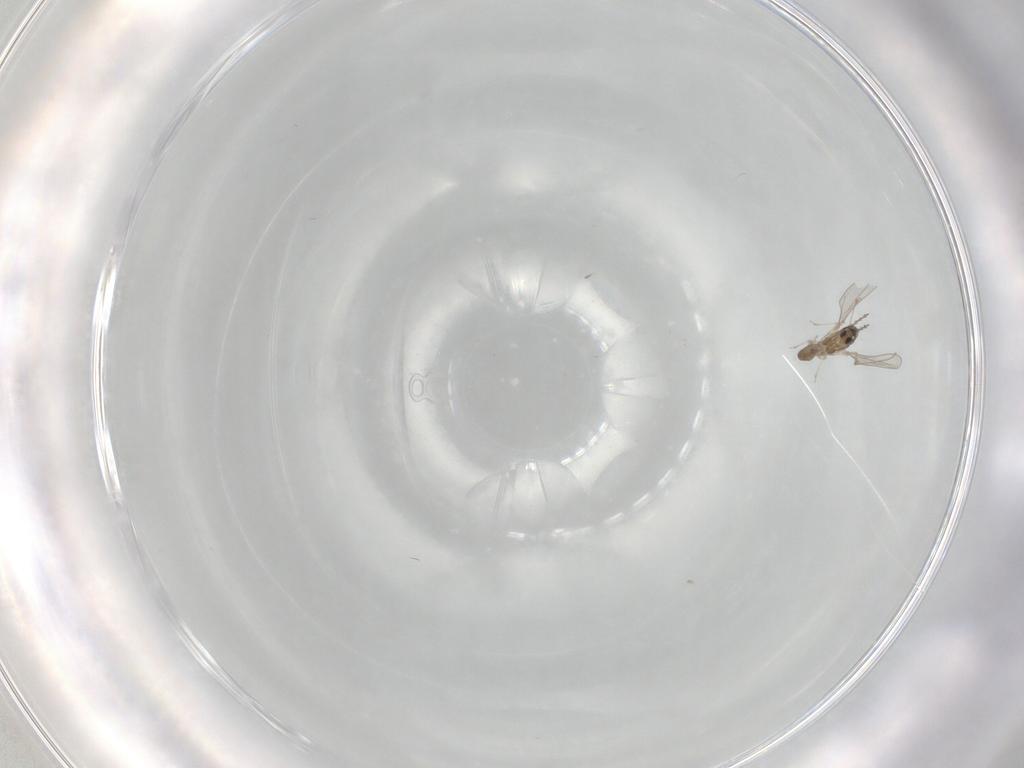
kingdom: Animalia
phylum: Arthropoda
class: Insecta
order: Diptera
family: Cecidomyiidae
